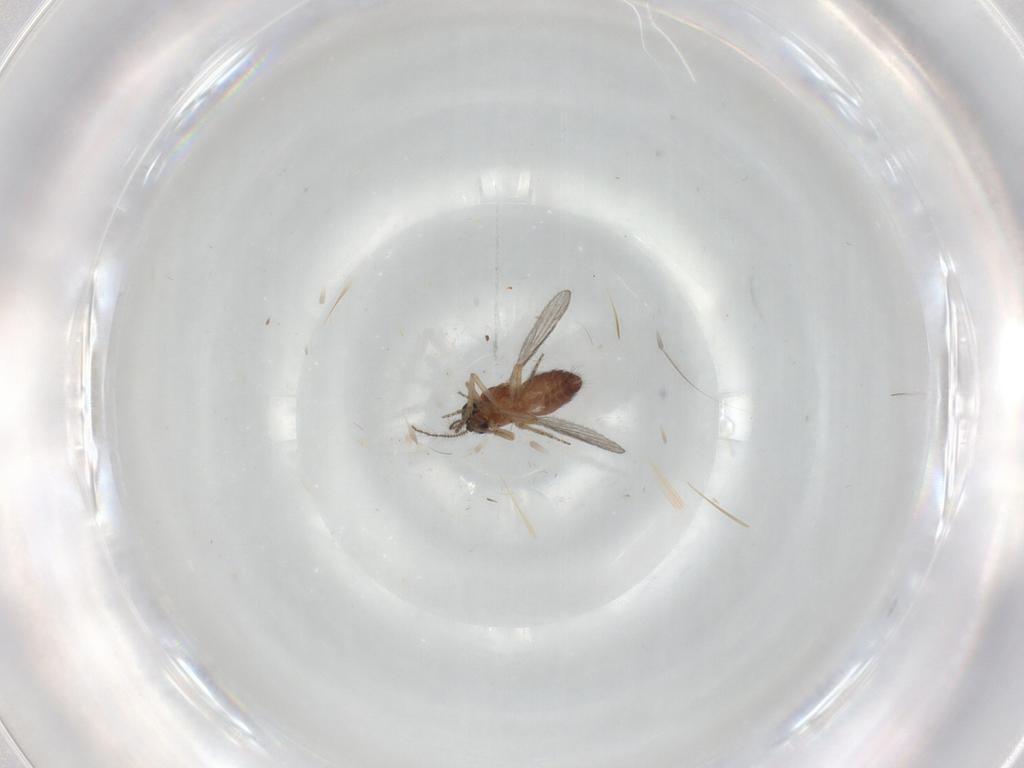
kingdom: Animalia
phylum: Arthropoda
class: Insecta
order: Diptera
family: Ceratopogonidae
